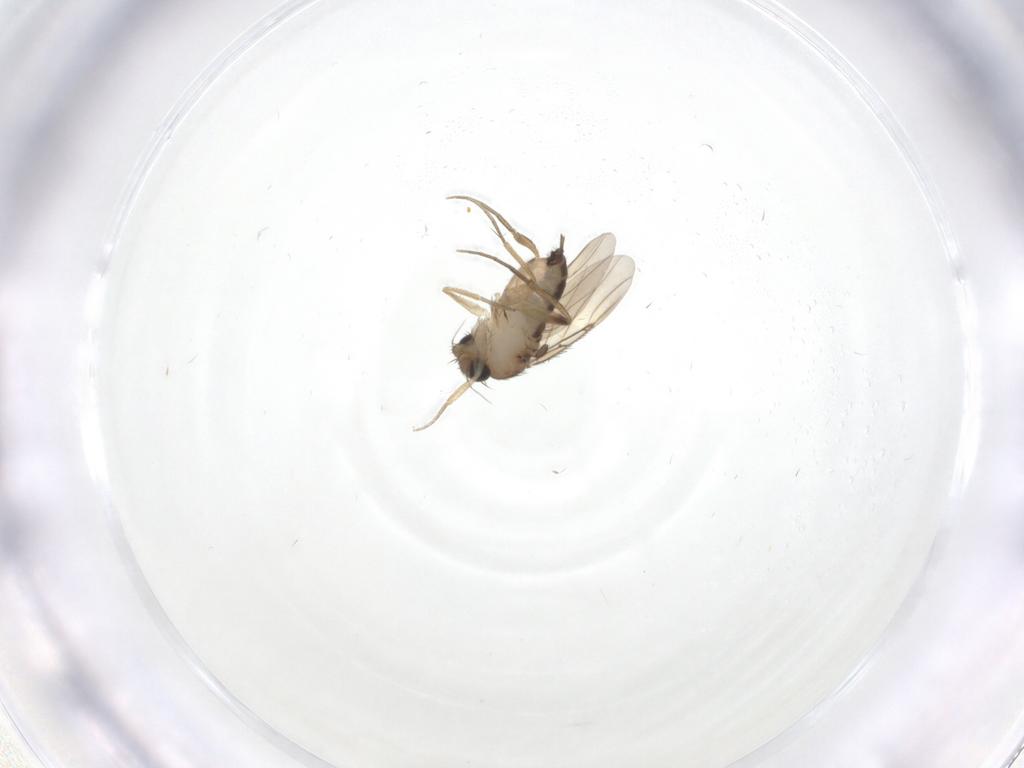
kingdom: Animalia
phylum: Arthropoda
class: Insecta
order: Diptera
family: Phoridae
